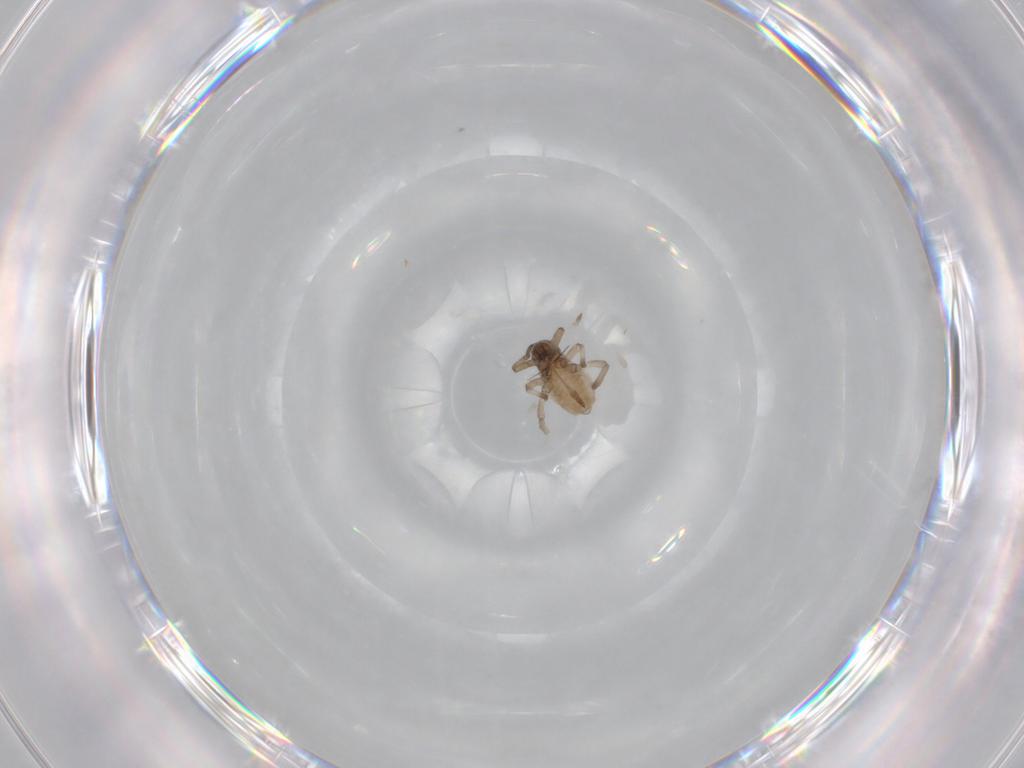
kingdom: Animalia
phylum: Arthropoda
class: Insecta
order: Hemiptera
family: Aphididae
